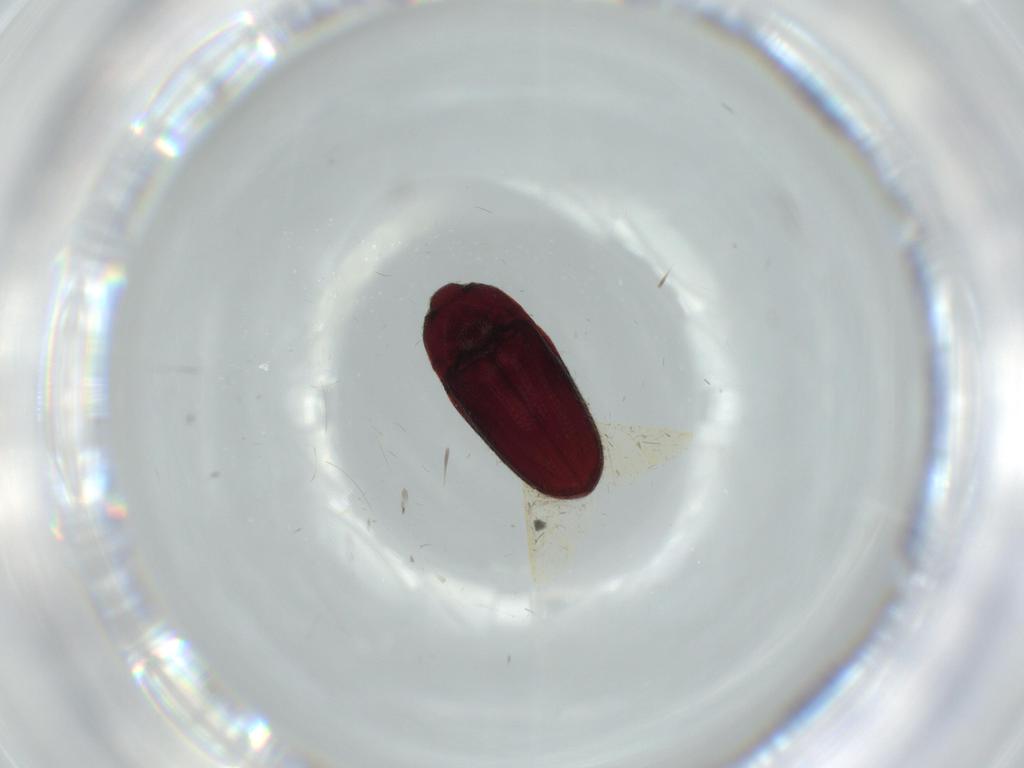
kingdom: Animalia
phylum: Arthropoda
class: Insecta
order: Coleoptera
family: Throscidae
